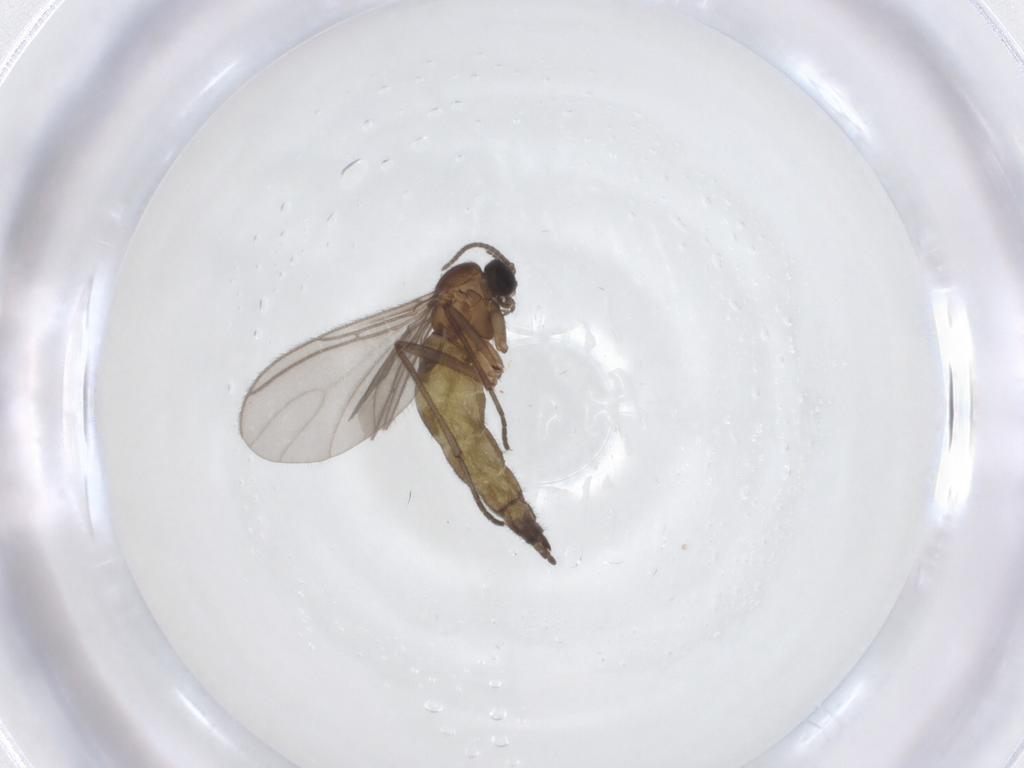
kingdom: Animalia
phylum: Arthropoda
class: Insecta
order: Diptera
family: Sciaridae
